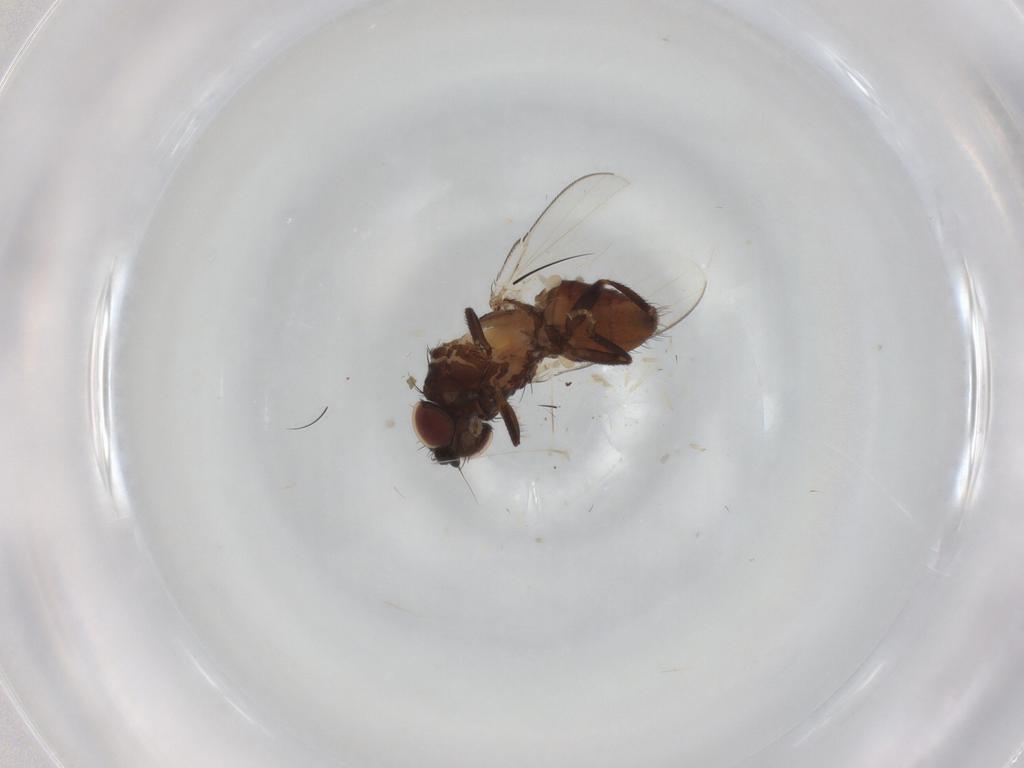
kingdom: Animalia
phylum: Arthropoda
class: Insecta
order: Diptera
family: Milichiidae
